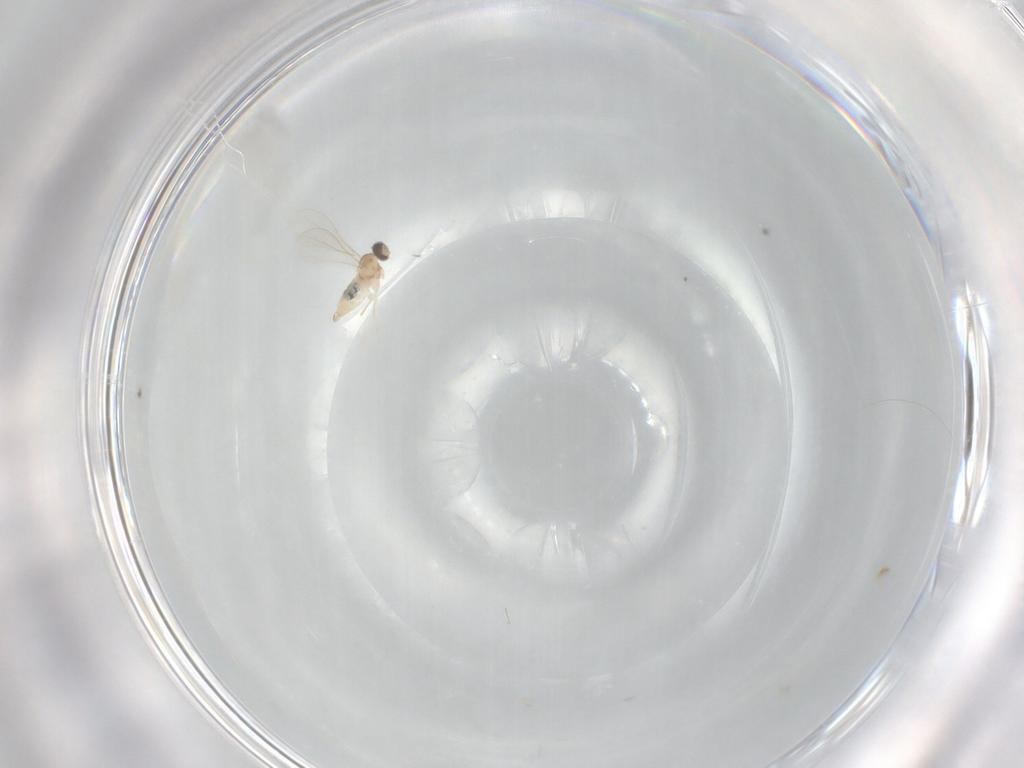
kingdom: Animalia
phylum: Arthropoda
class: Insecta
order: Diptera
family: Cecidomyiidae
